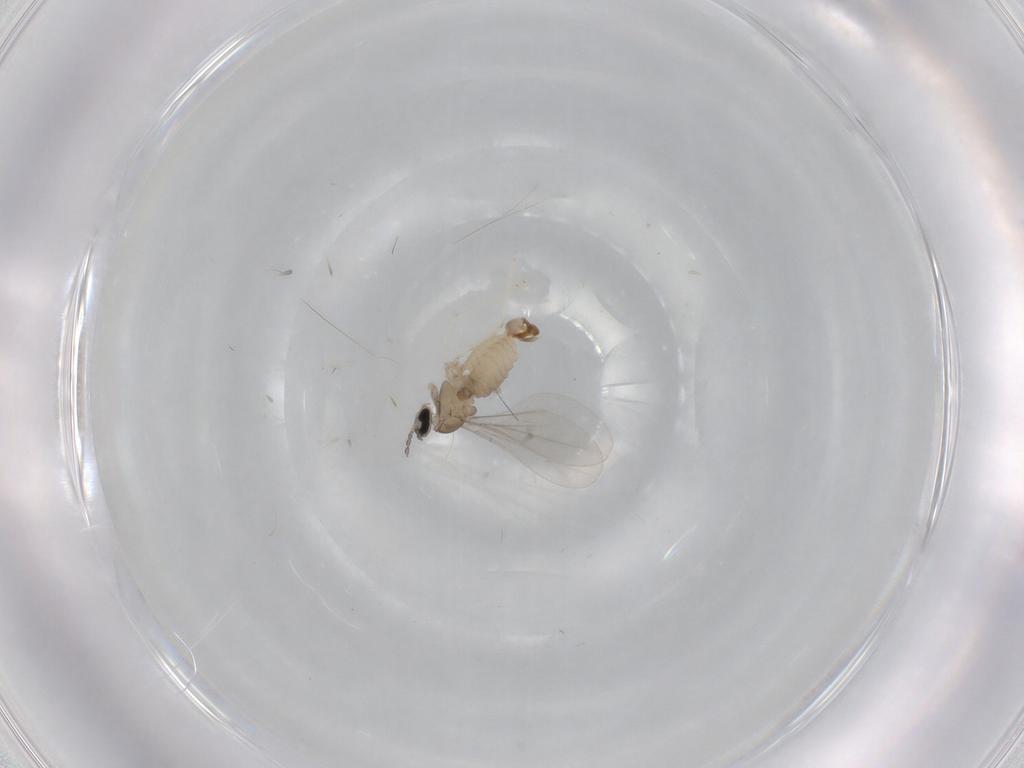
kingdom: Animalia
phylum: Arthropoda
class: Insecta
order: Diptera
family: Cecidomyiidae
